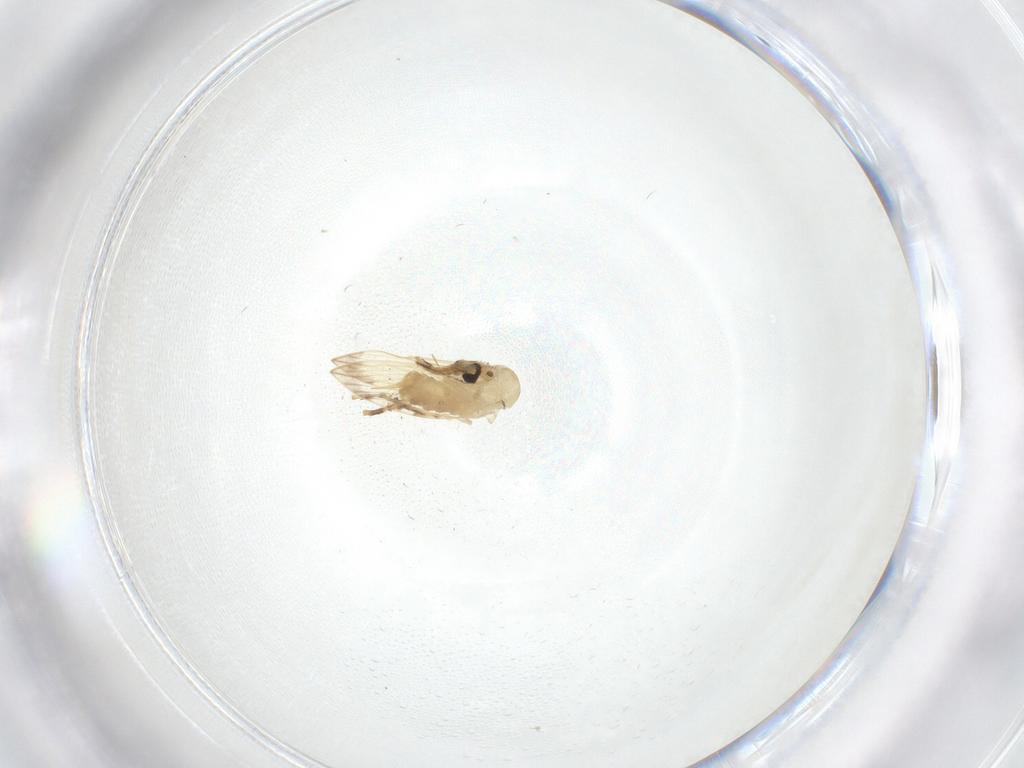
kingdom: Animalia
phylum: Arthropoda
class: Insecta
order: Diptera
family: Psychodidae
